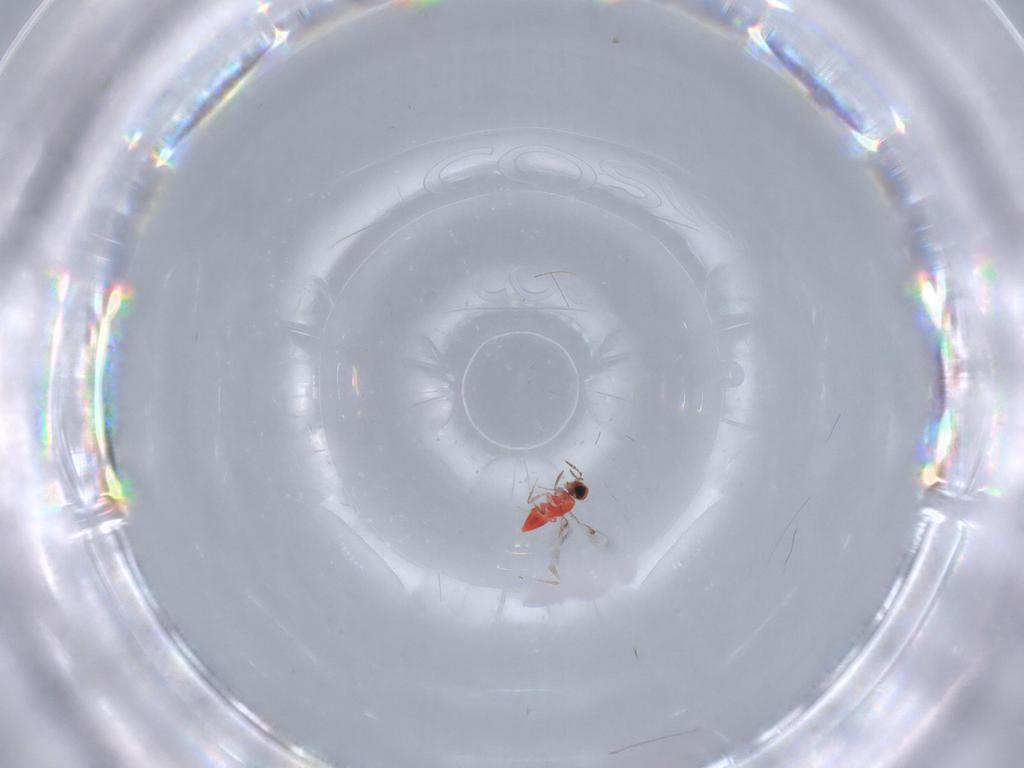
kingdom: Animalia
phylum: Arthropoda
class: Insecta
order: Hymenoptera
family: Trichogrammatidae
